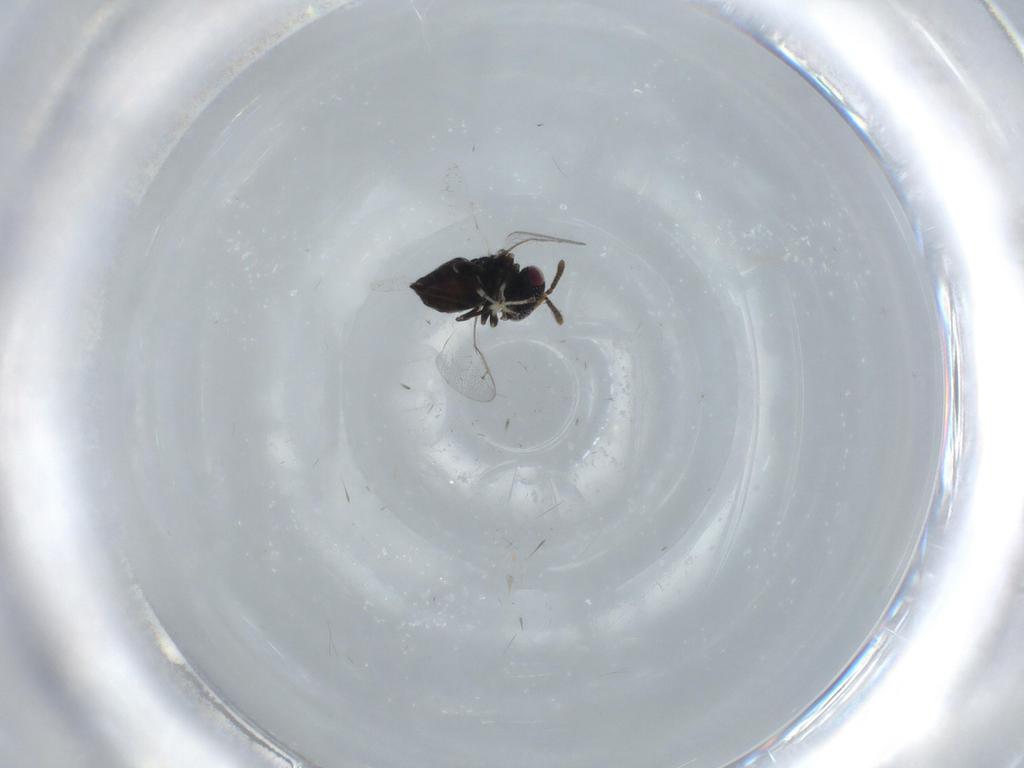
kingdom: Animalia
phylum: Arthropoda
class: Insecta
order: Hymenoptera
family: Pteromalidae
